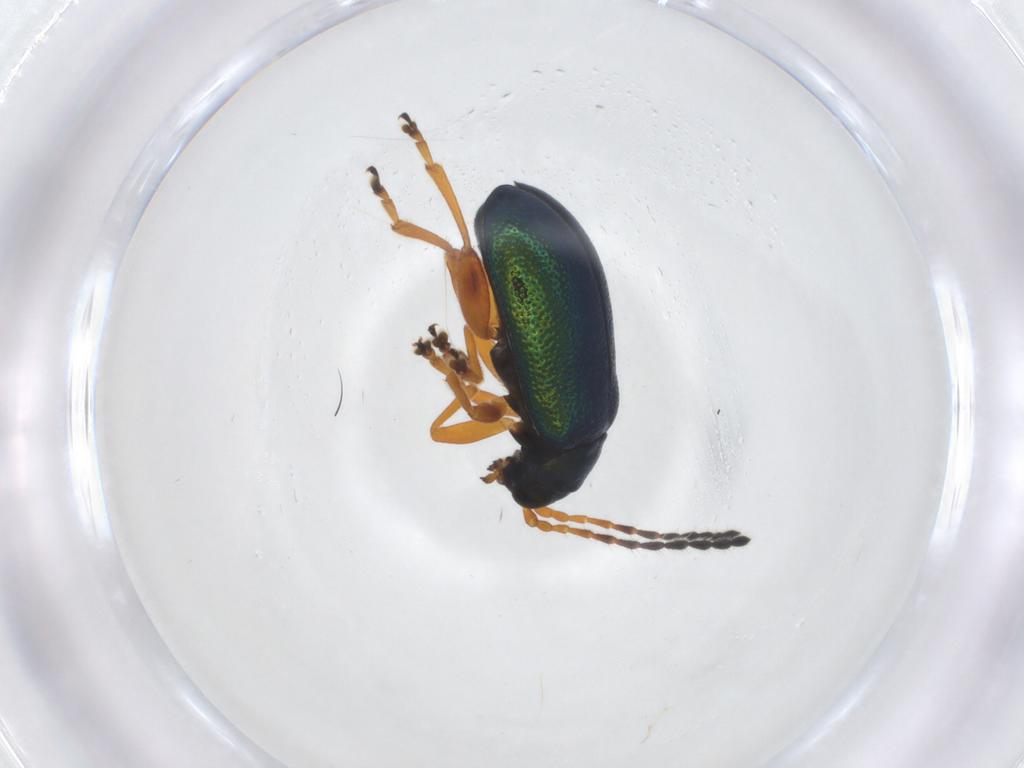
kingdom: Animalia
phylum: Arthropoda
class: Insecta
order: Coleoptera
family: Chrysomelidae
